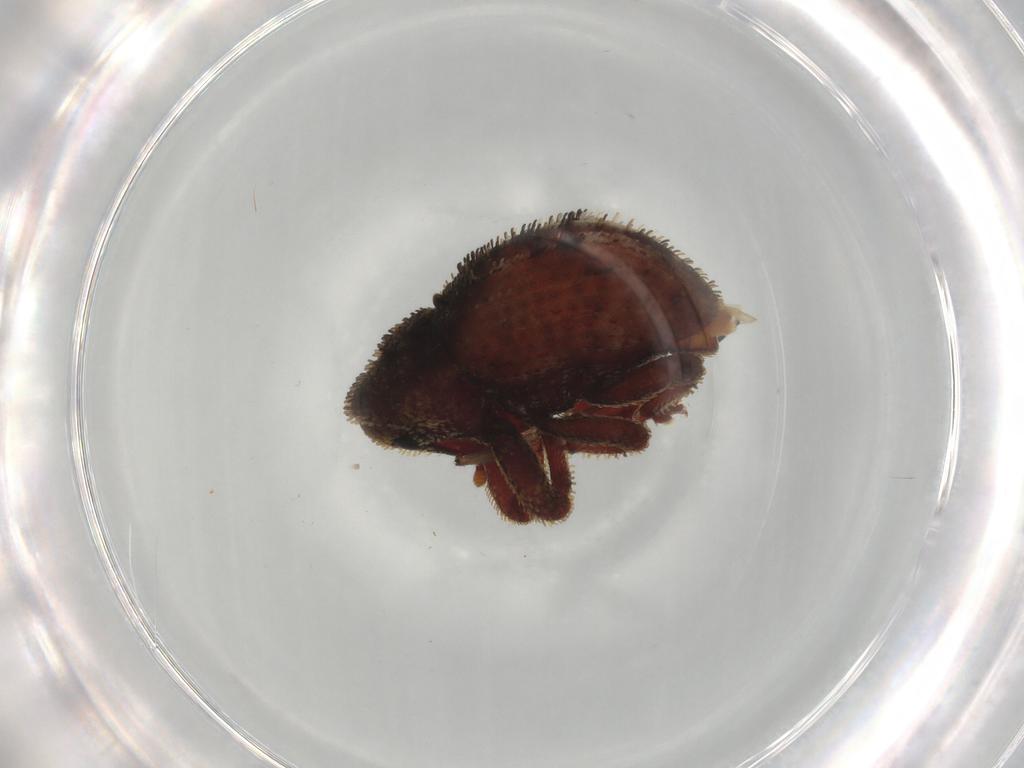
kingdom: Animalia
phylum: Arthropoda
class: Insecta
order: Coleoptera
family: Curculionidae
